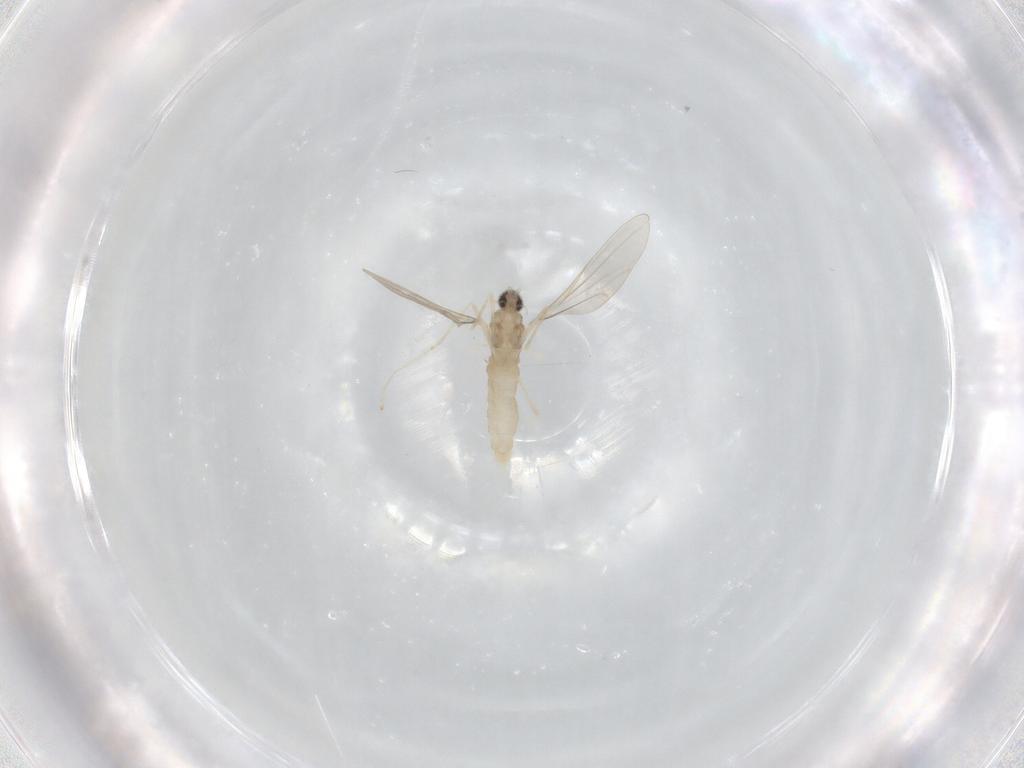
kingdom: Animalia
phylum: Arthropoda
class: Insecta
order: Diptera
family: Cecidomyiidae
